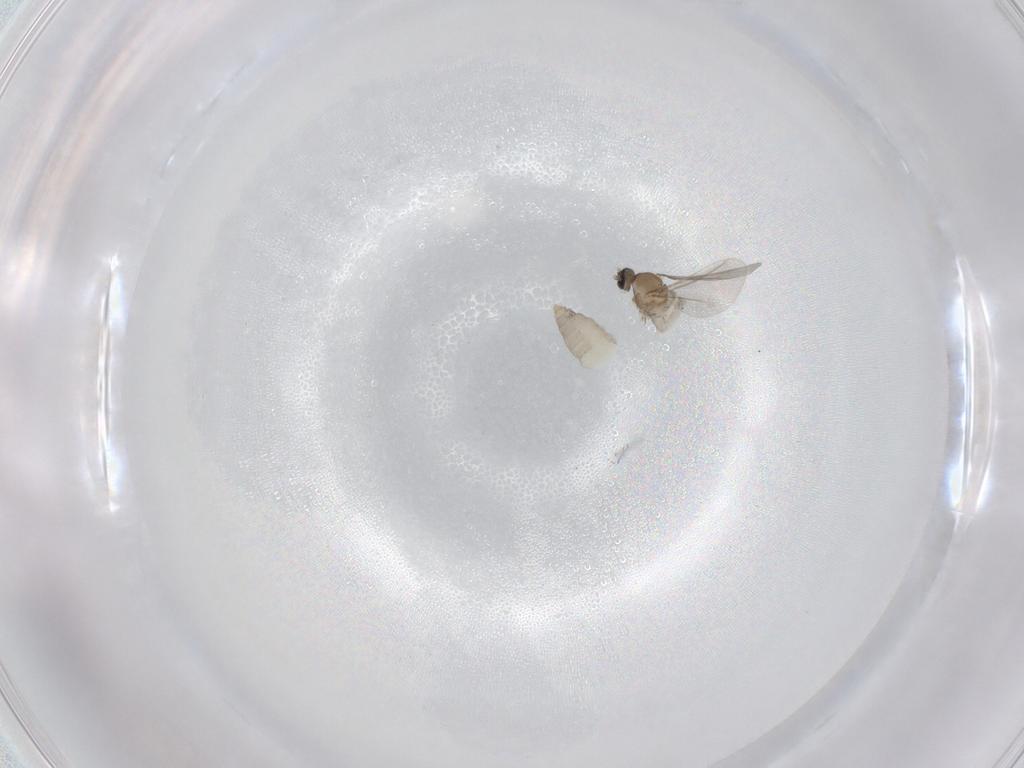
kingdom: Animalia
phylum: Arthropoda
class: Insecta
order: Diptera
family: Cecidomyiidae
